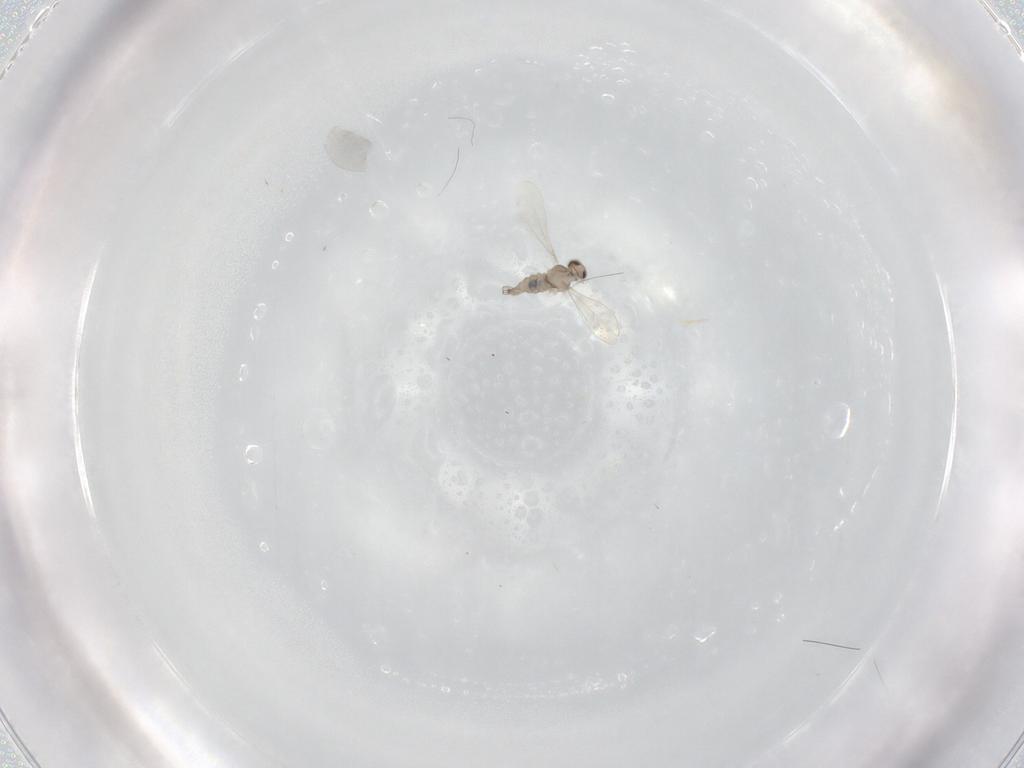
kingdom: Animalia
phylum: Arthropoda
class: Insecta
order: Diptera
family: Cecidomyiidae
